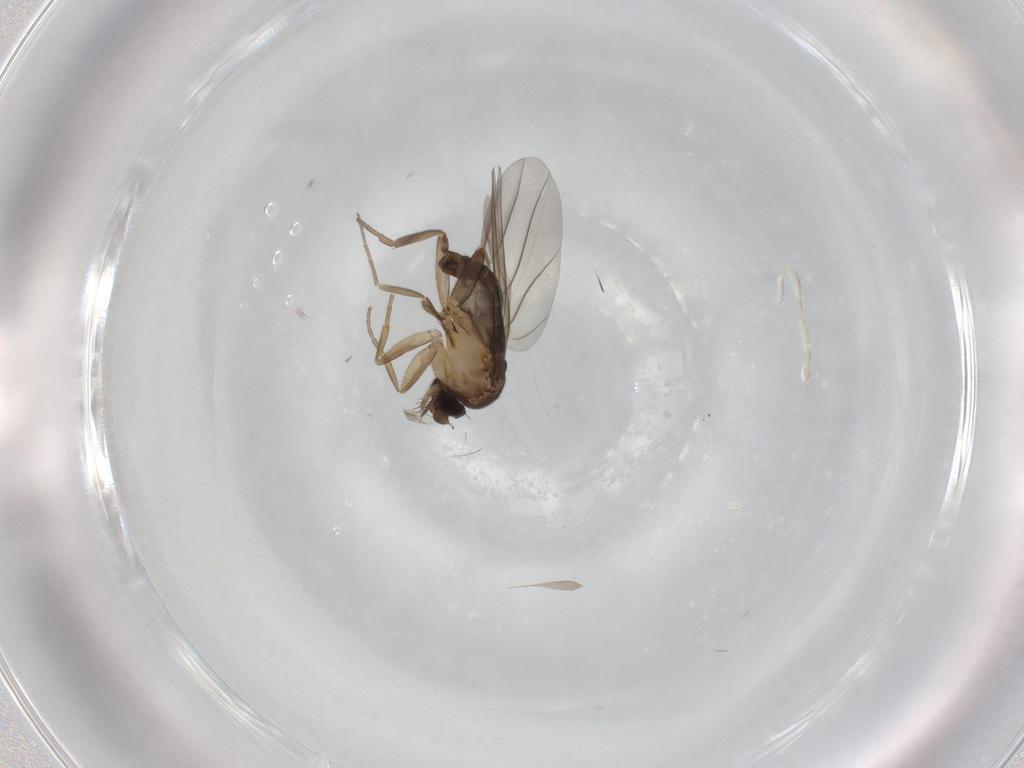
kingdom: Animalia
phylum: Arthropoda
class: Insecta
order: Diptera
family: Phoridae
